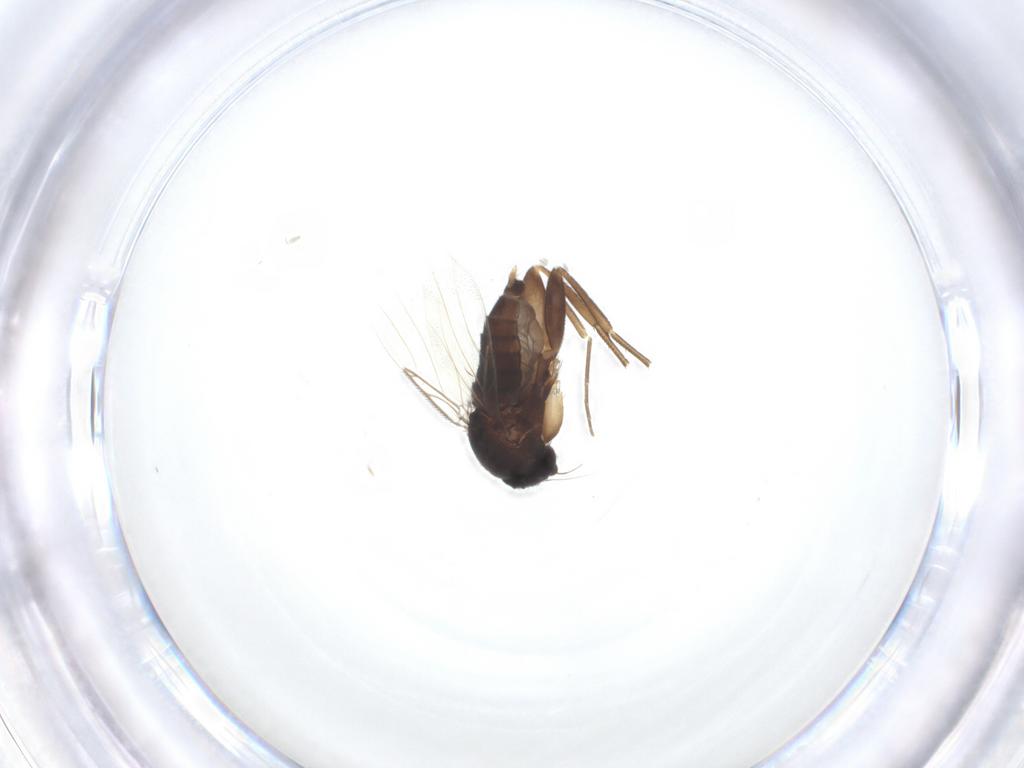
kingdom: Animalia
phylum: Arthropoda
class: Insecta
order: Diptera
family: Phoridae
